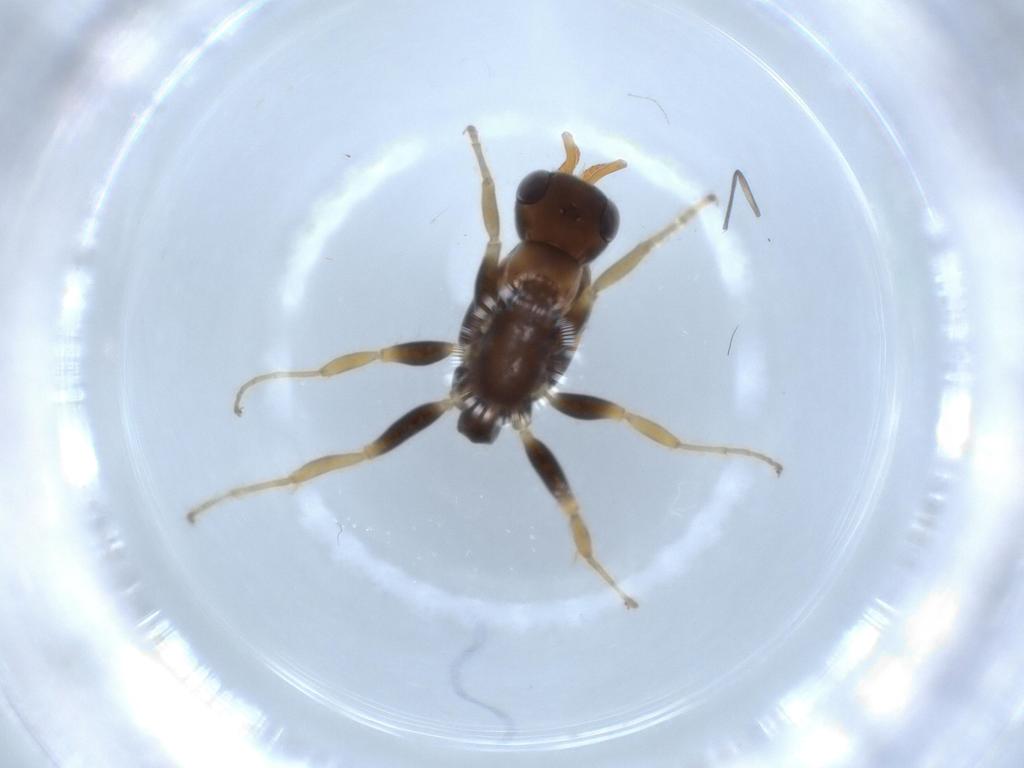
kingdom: Animalia
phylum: Arthropoda
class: Insecta
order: Hymenoptera
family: Formicidae
